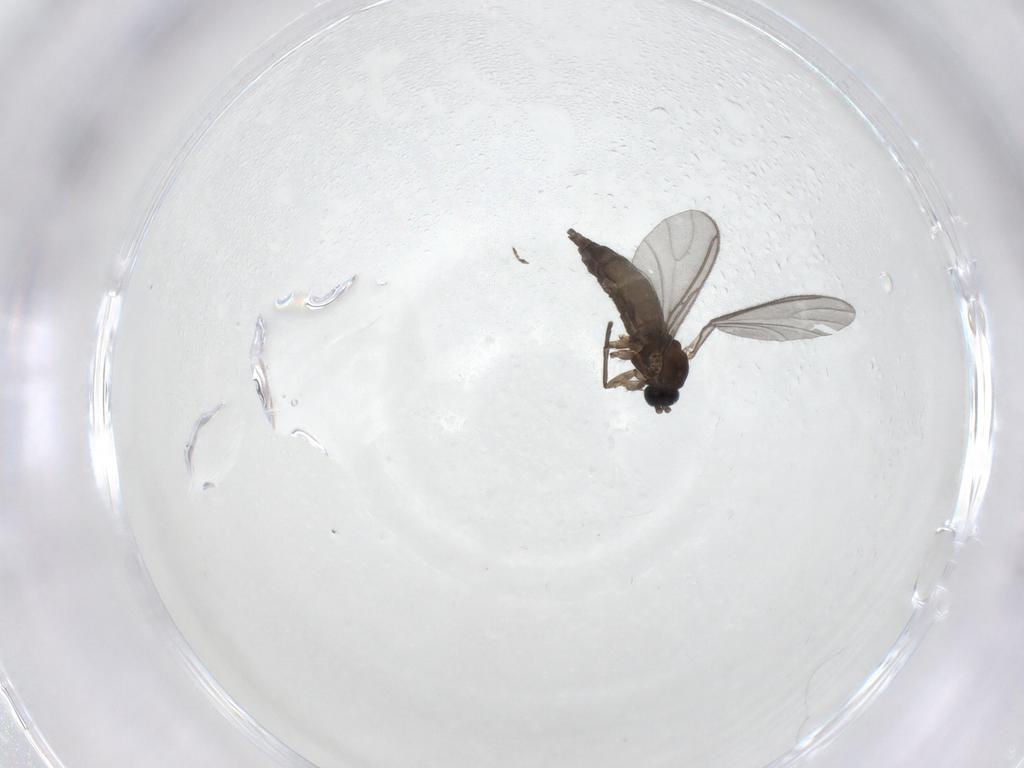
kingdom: Animalia
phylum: Arthropoda
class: Insecta
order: Diptera
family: Sciaridae
